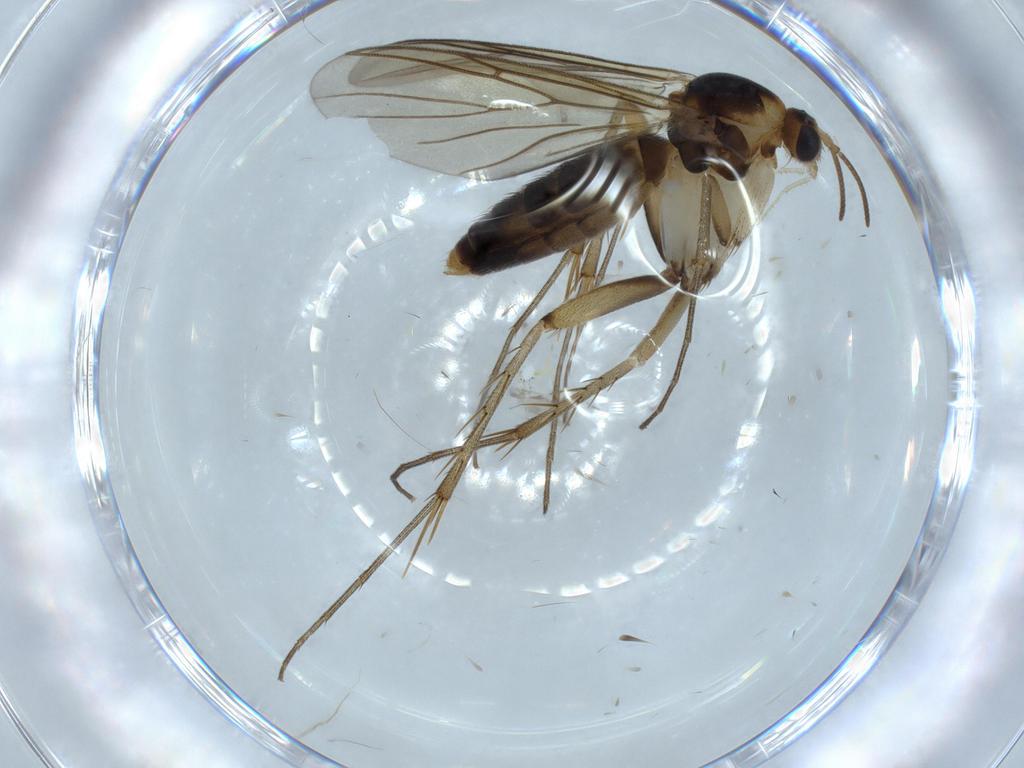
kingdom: Animalia
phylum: Arthropoda
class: Insecta
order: Diptera
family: Mycetophilidae
